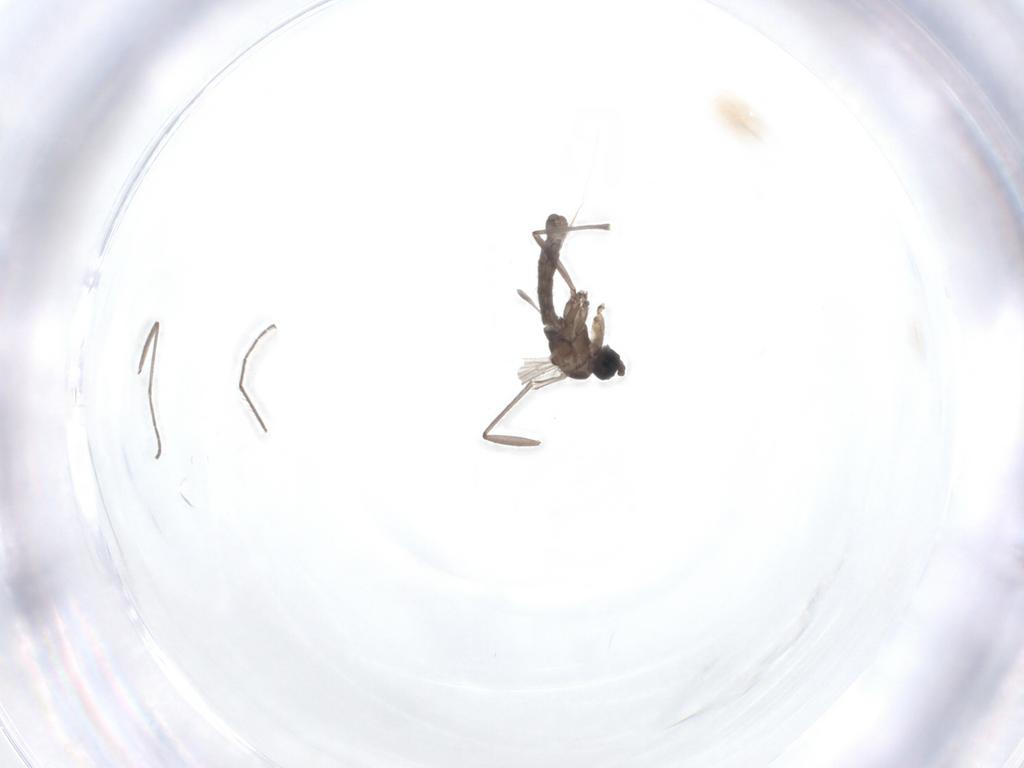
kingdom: Animalia
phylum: Arthropoda
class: Insecta
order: Diptera
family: Sciaridae
